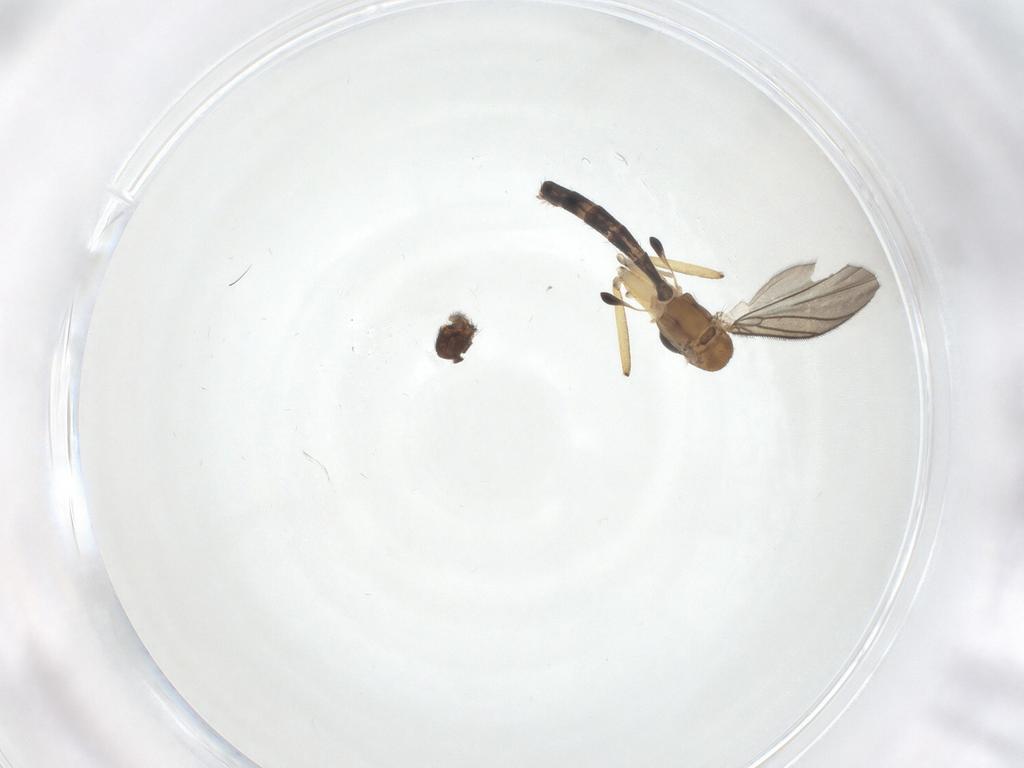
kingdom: Animalia
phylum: Arthropoda
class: Insecta
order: Diptera
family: Chironomidae
